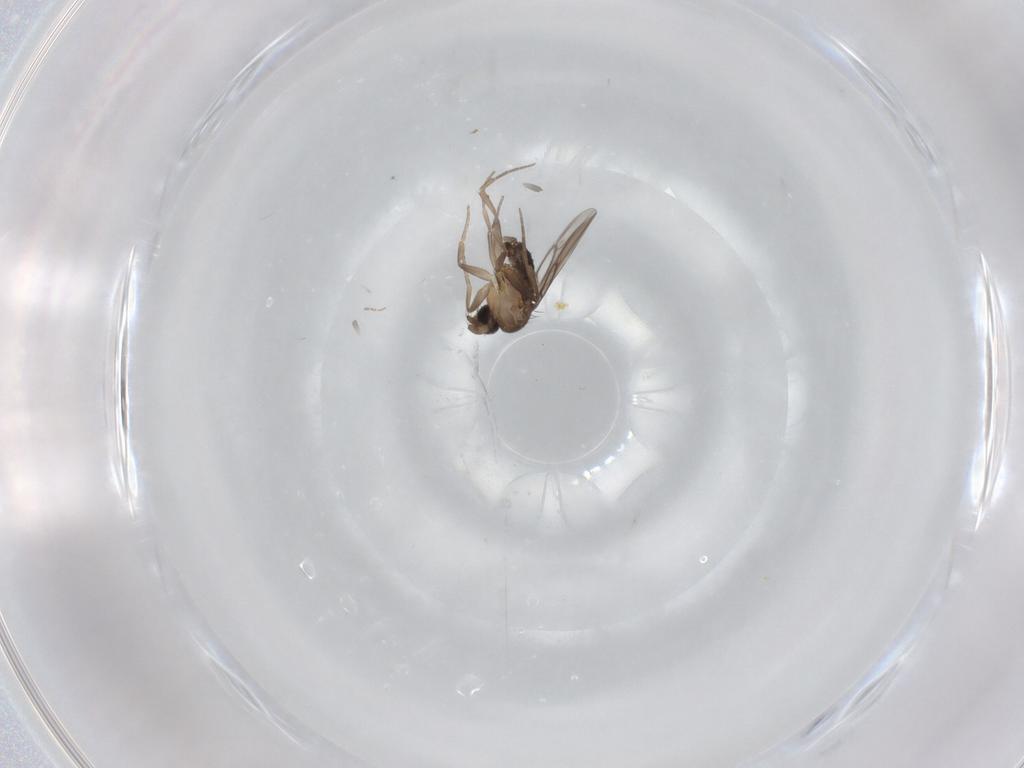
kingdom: Animalia
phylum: Arthropoda
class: Insecta
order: Diptera
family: Phoridae
